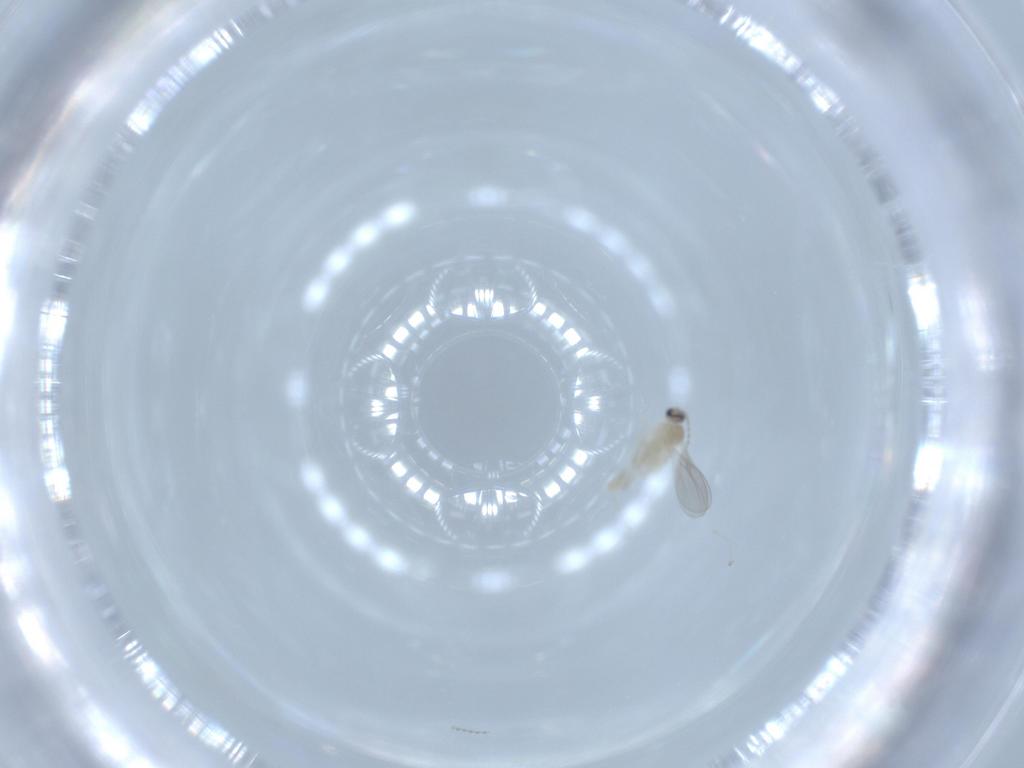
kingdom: Animalia
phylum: Arthropoda
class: Insecta
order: Diptera
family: Cecidomyiidae
